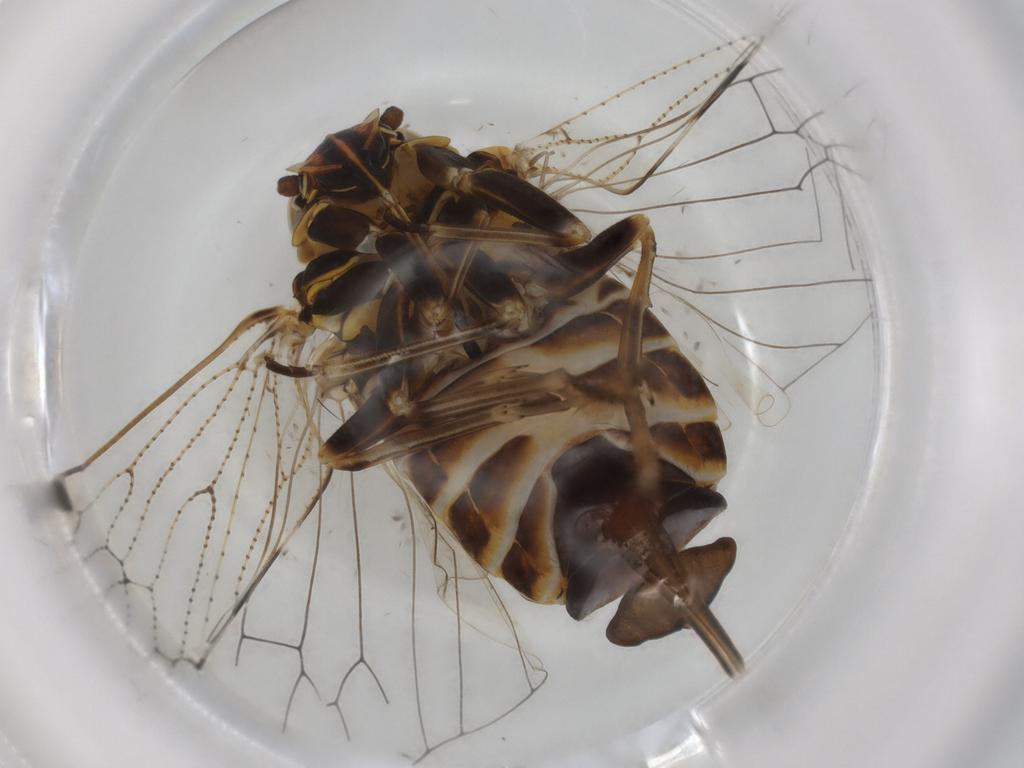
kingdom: Animalia
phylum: Arthropoda
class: Insecta
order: Hemiptera
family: Cixiidae
